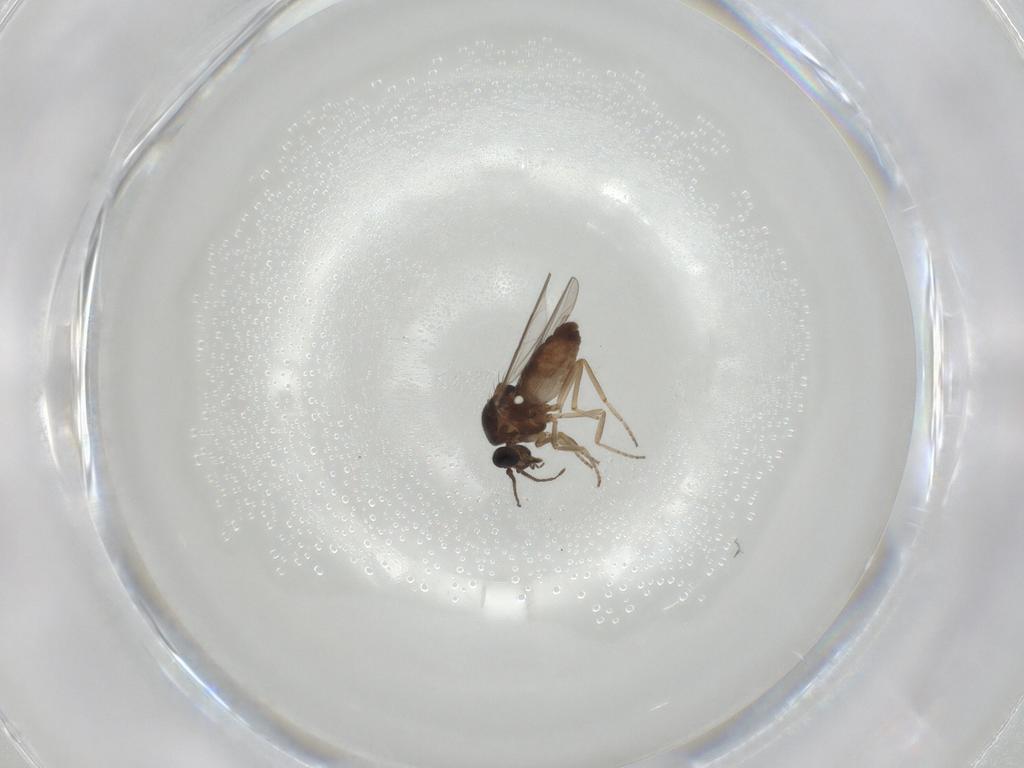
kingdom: Animalia
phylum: Arthropoda
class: Insecta
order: Diptera
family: Ceratopogonidae
